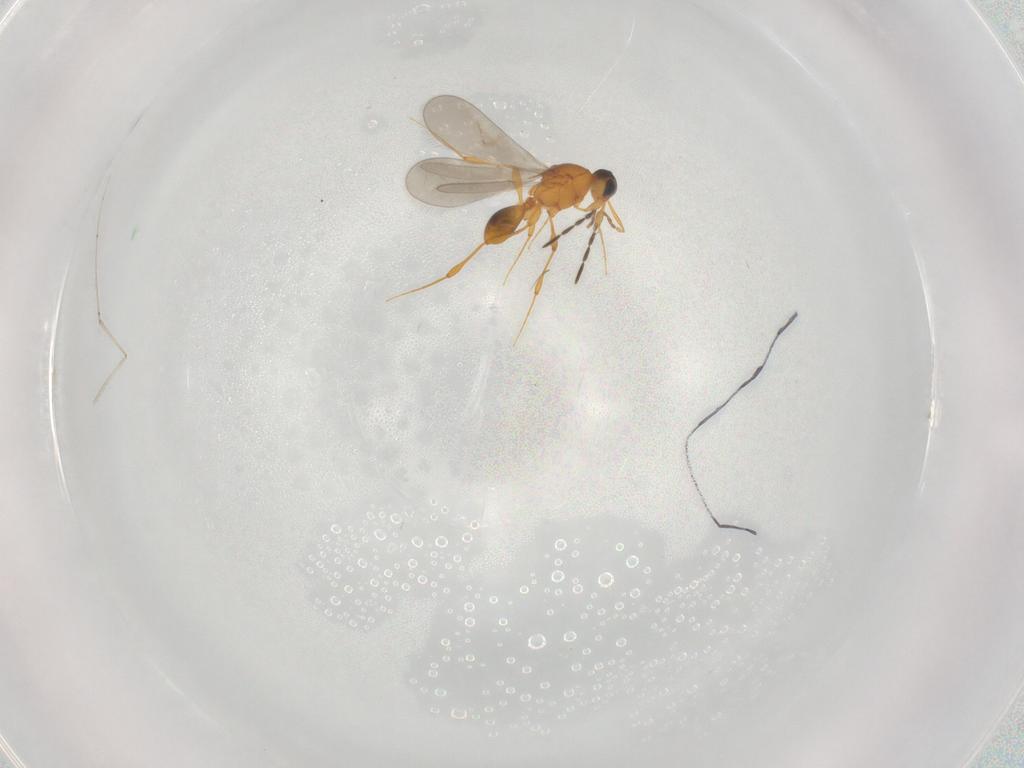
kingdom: Animalia
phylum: Arthropoda
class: Insecta
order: Hymenoptera
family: Platygastridae
